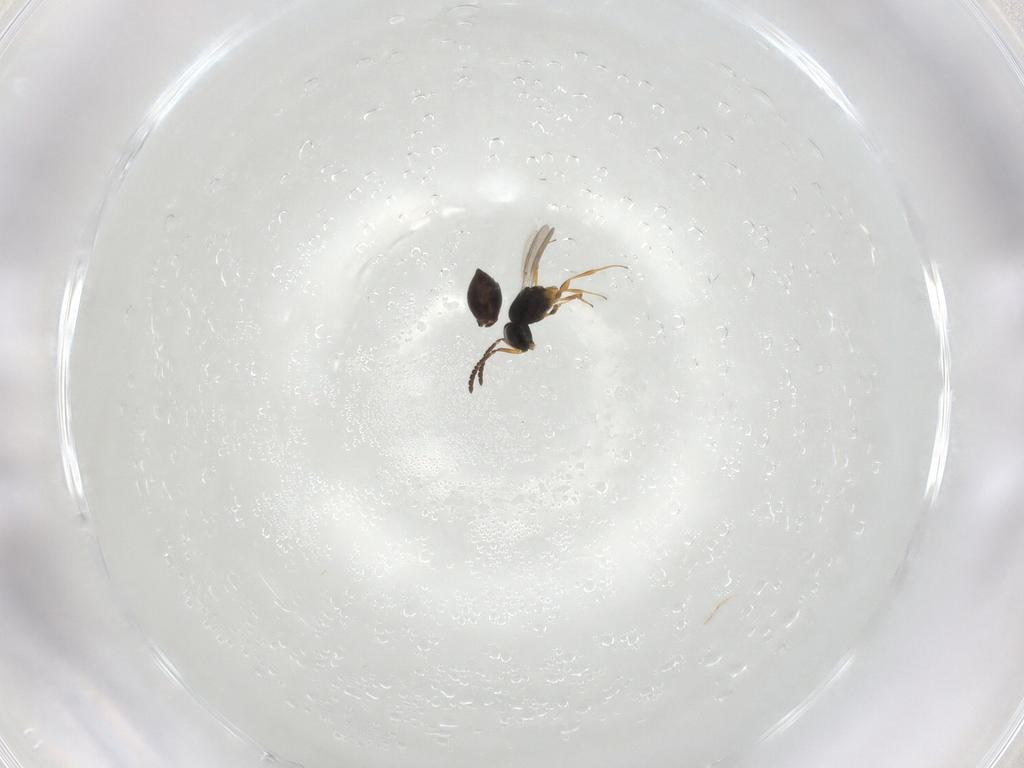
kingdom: Animalia
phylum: Arthropoda
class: Insecta
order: Hymenoptera
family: Scelionidae
